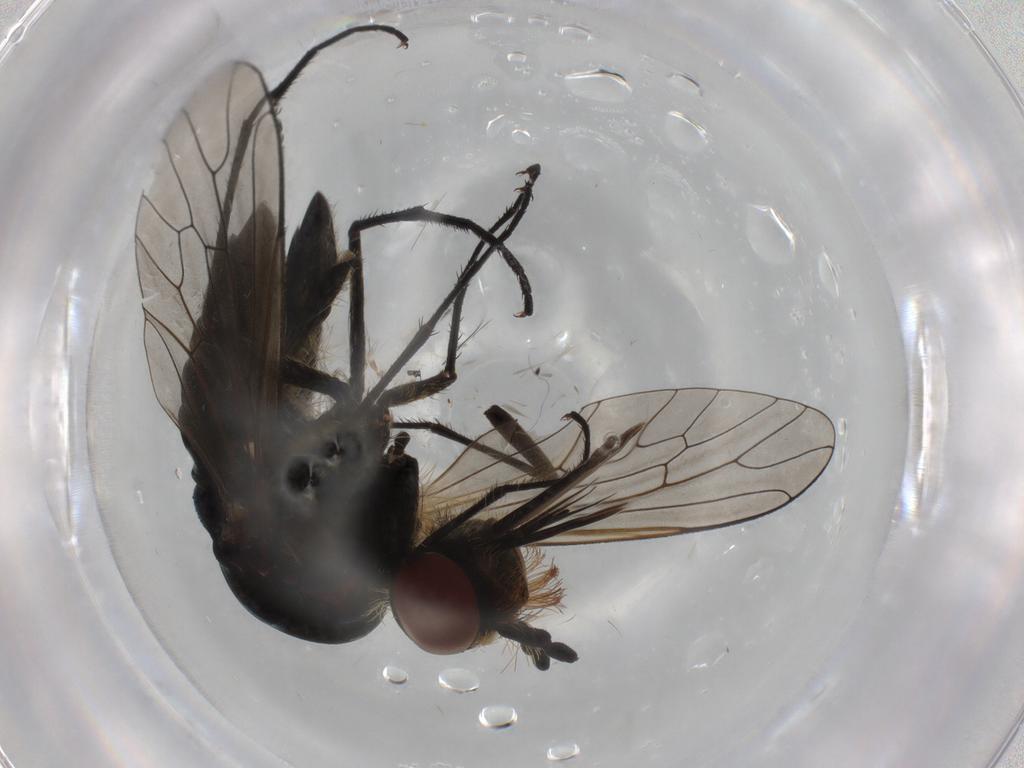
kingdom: Animalia
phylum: Arthropoda
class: Insecta
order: Diptera
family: Bombyliidae
